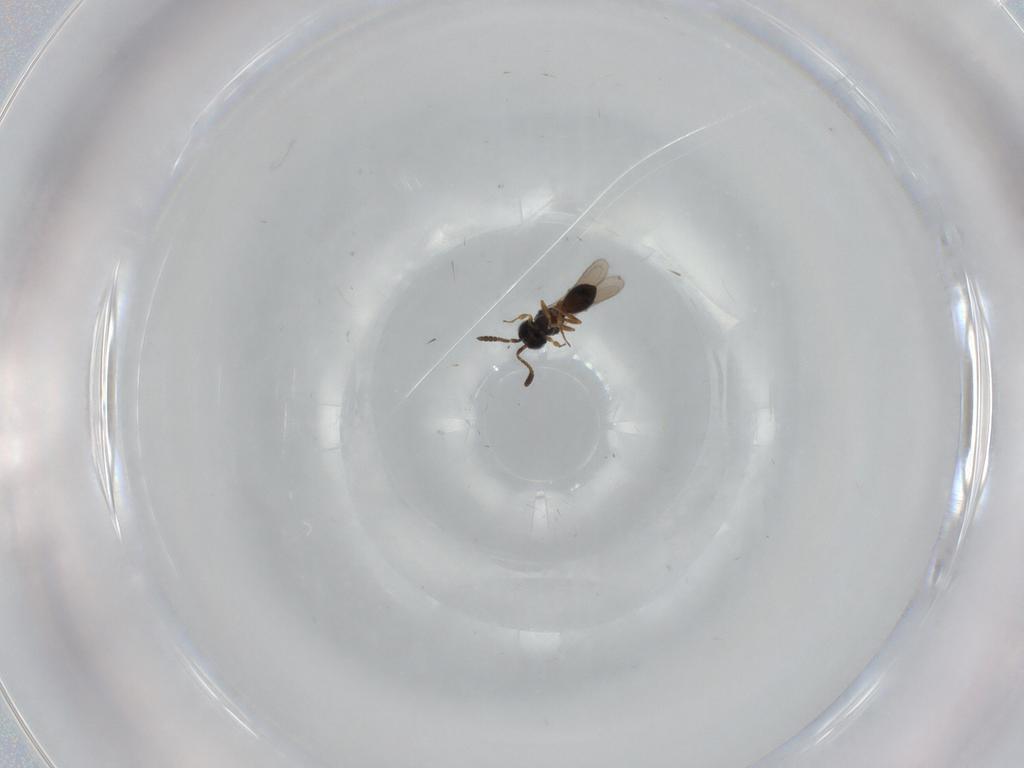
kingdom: Animalia
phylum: Arthropoda
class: Insecta
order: Hymenoptera
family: Scelionidae
